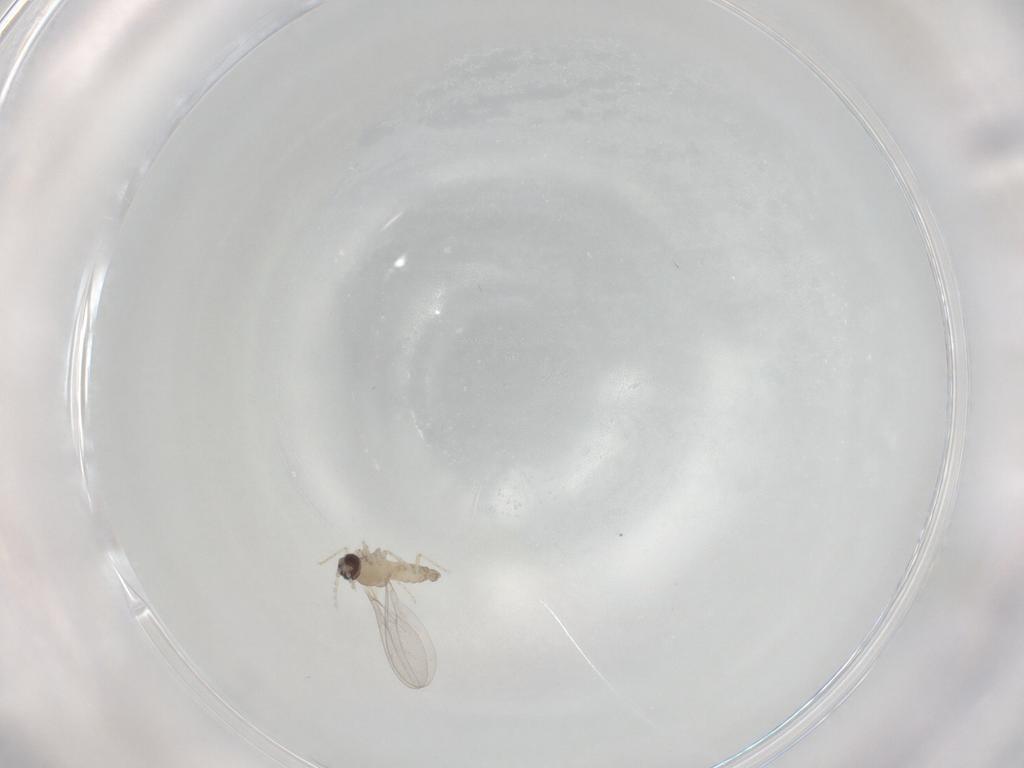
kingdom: Animalia
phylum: Arthropoda
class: Insecta
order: Diptera
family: Cecidomyiidae
